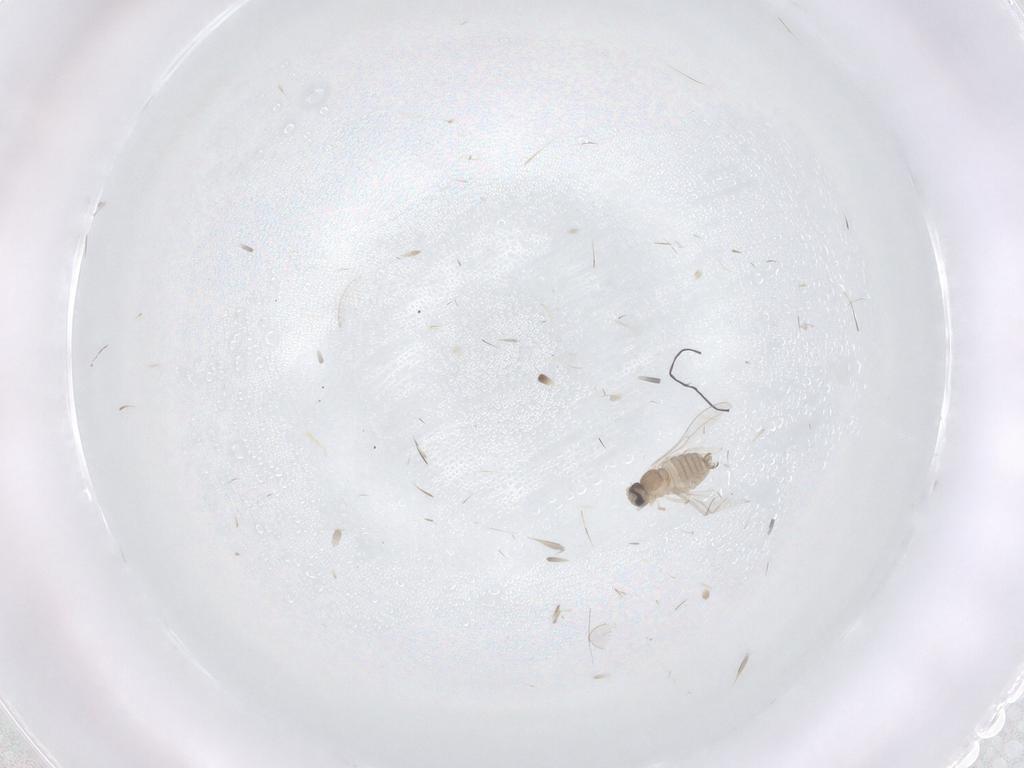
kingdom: Animalia
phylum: Arthropoda
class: Insecta
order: Diptera
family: Cecidomyiidae
